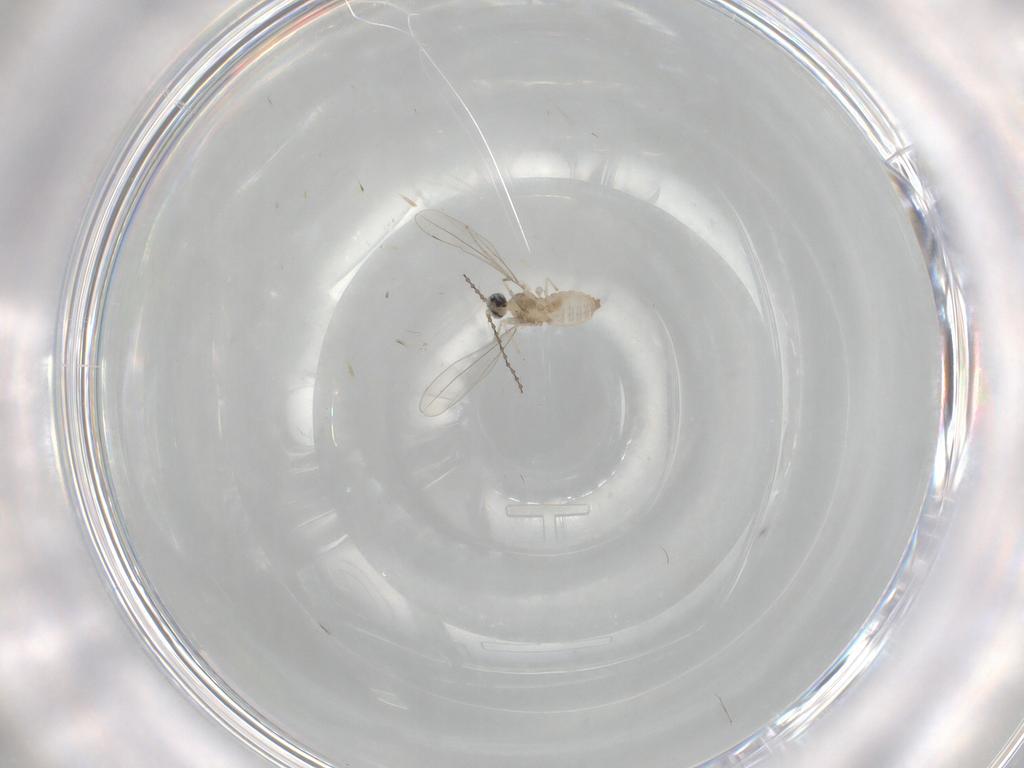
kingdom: Animalia
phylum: Arthropoda
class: Insecta
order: Diptera
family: Cecidomyiidae
